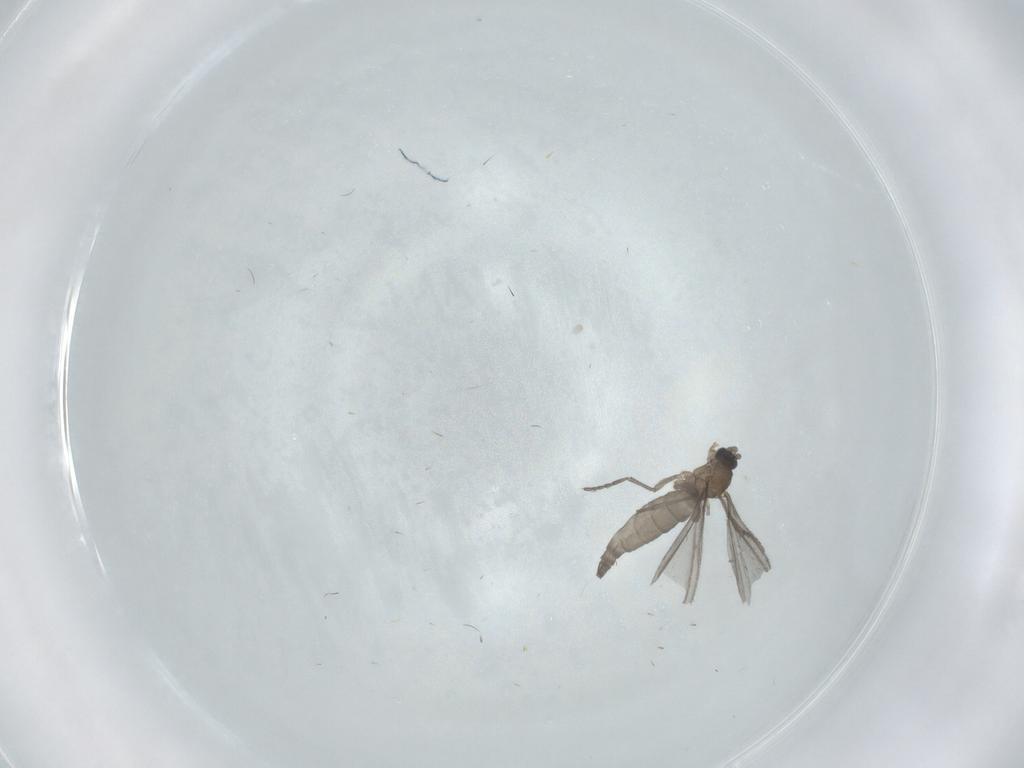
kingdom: Animalia
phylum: Arthropoda
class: Insecta
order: Diptera
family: Sciaridae
